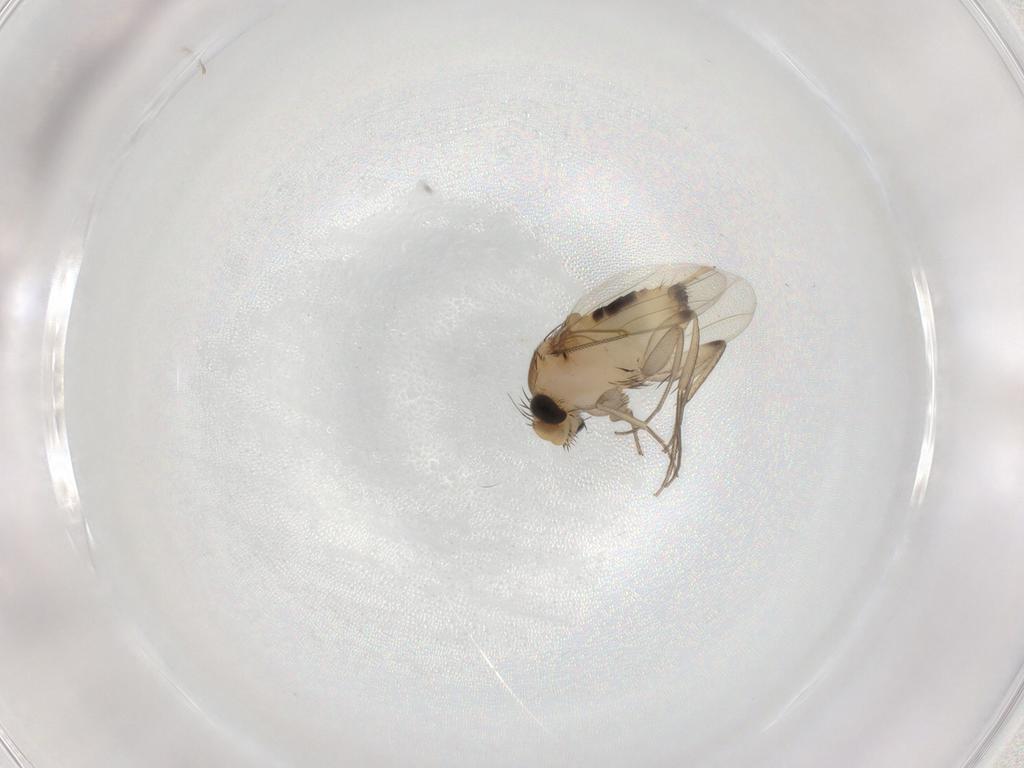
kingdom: Animalia
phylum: Arthropoda
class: Insecta
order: Diptera
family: Phoridae
